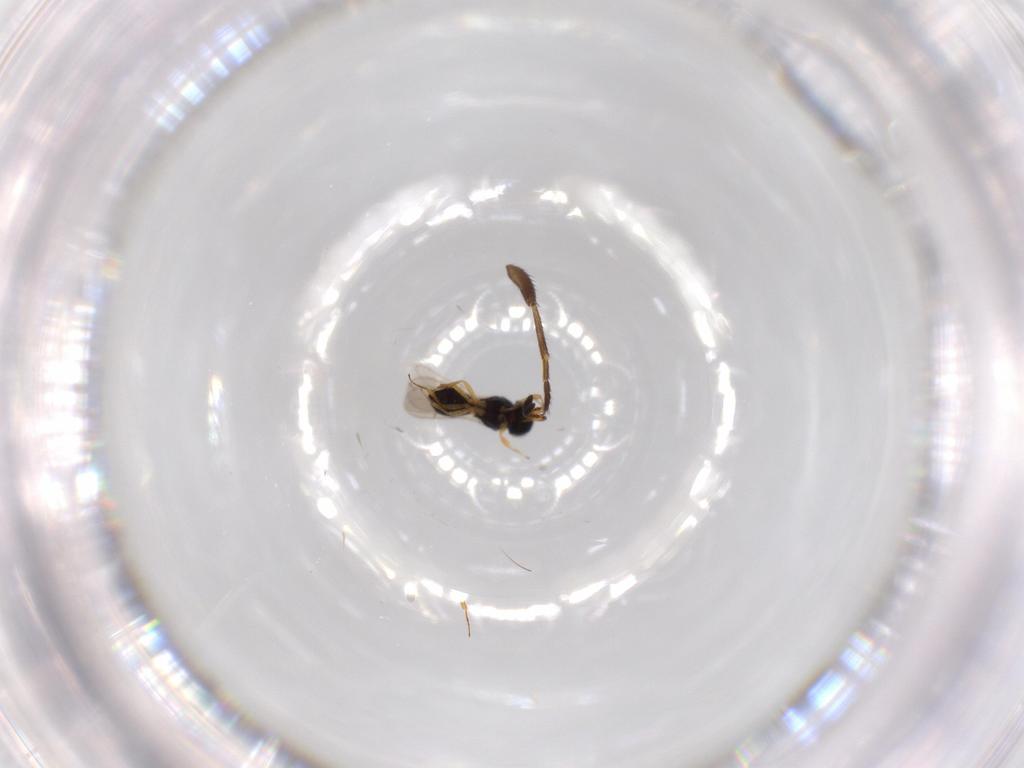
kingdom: Animalia
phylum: Arthropoda
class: Insecta
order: Hymenoptera
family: Scelionidae
